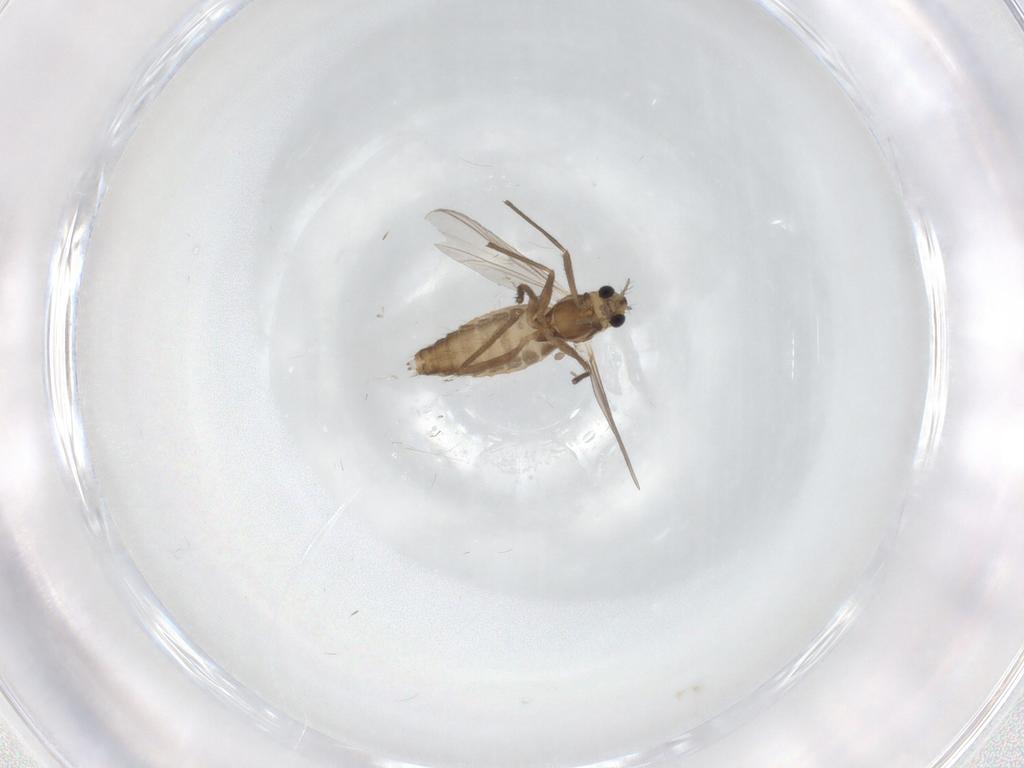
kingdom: Animalia
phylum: Arthropoda
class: Insecta
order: Diptera
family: Chironomidae
